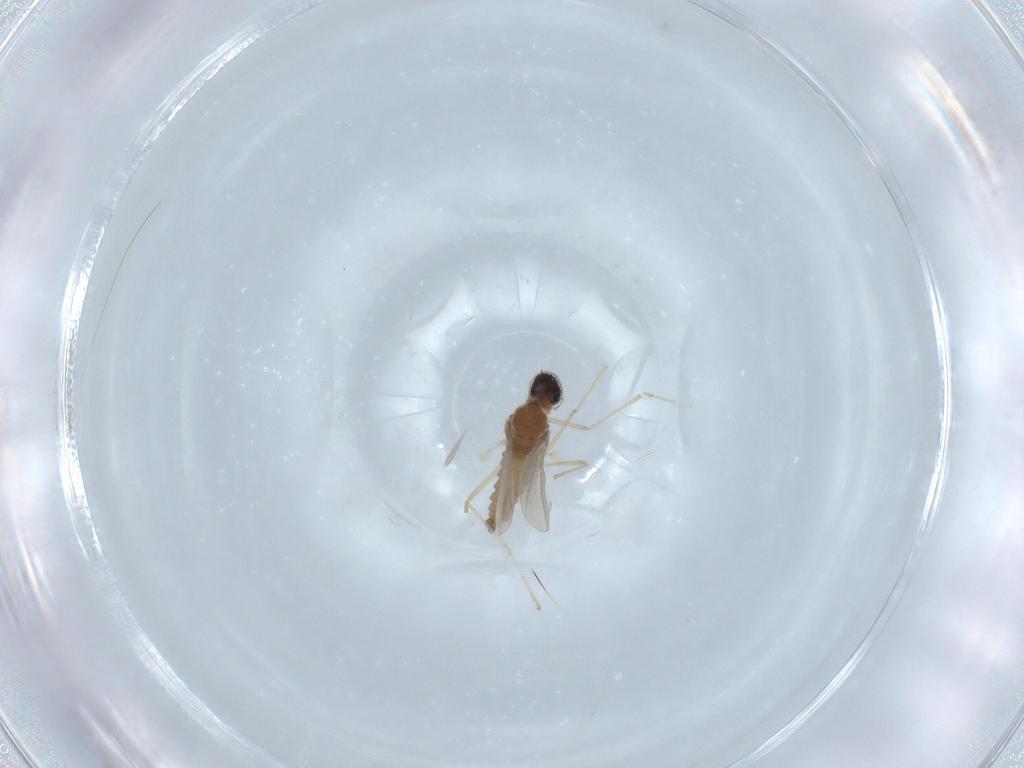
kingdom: Animalia
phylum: Arthropoda
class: Insecta
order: Diptera
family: Cecidomyiidae
